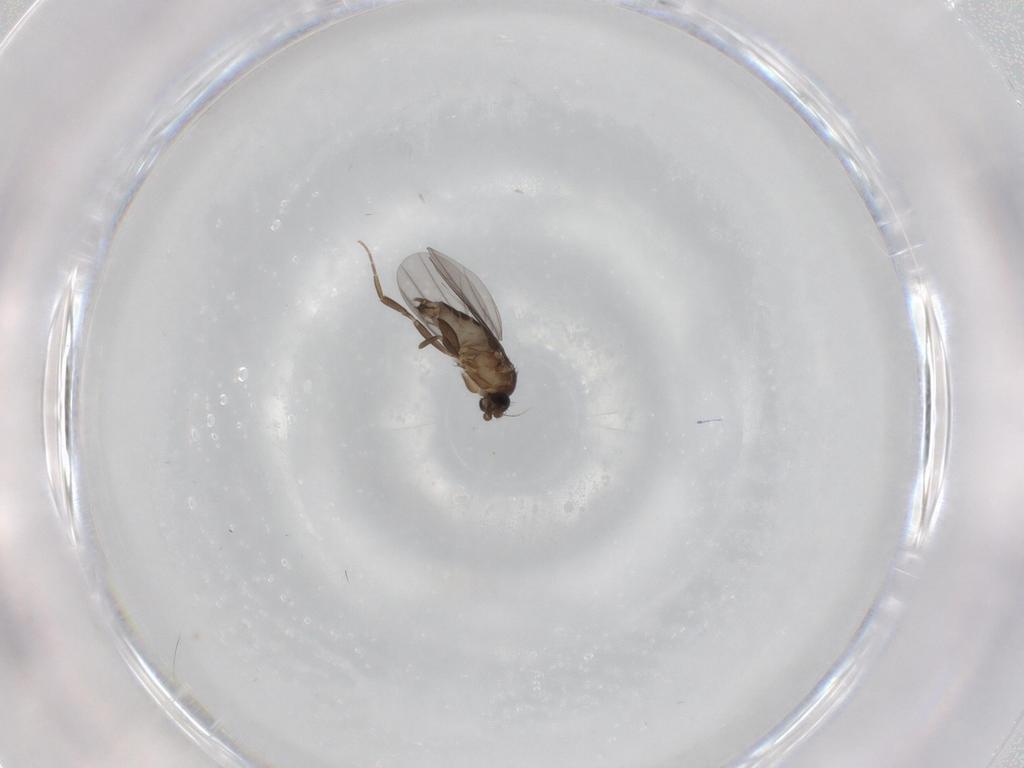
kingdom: Animalia
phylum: Arthropoda
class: Insecta
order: Diptera
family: Phoridae
